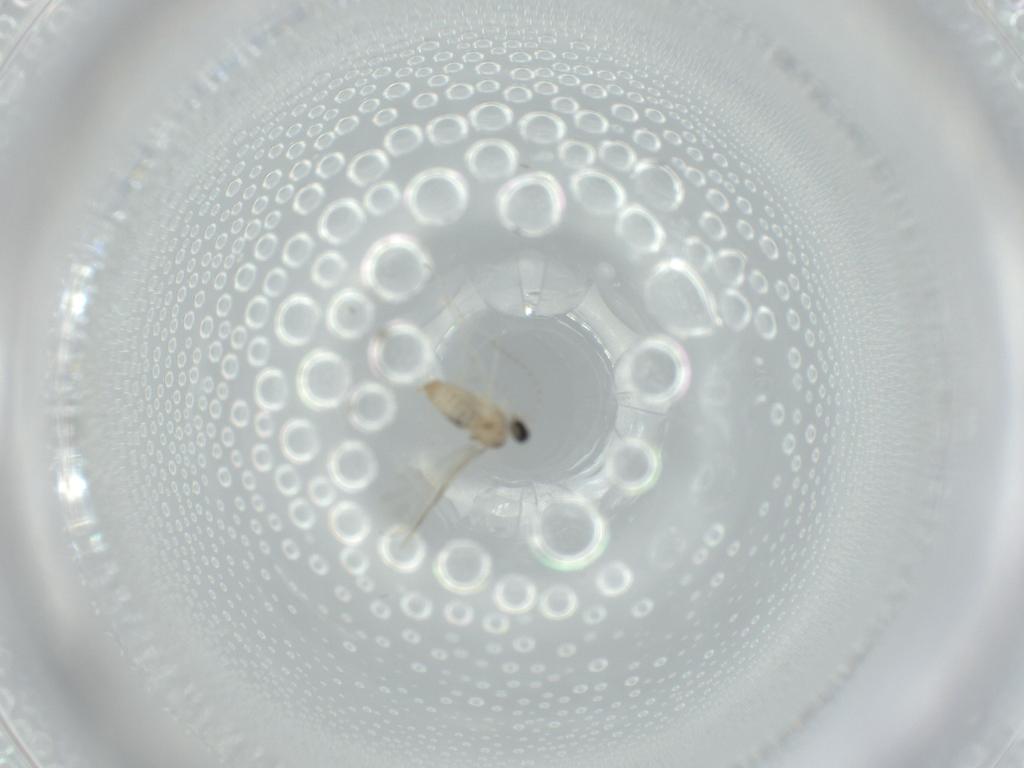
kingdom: Animalia
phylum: Arthropoda
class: Insecta
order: Diptera
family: Cecidomyiidae
